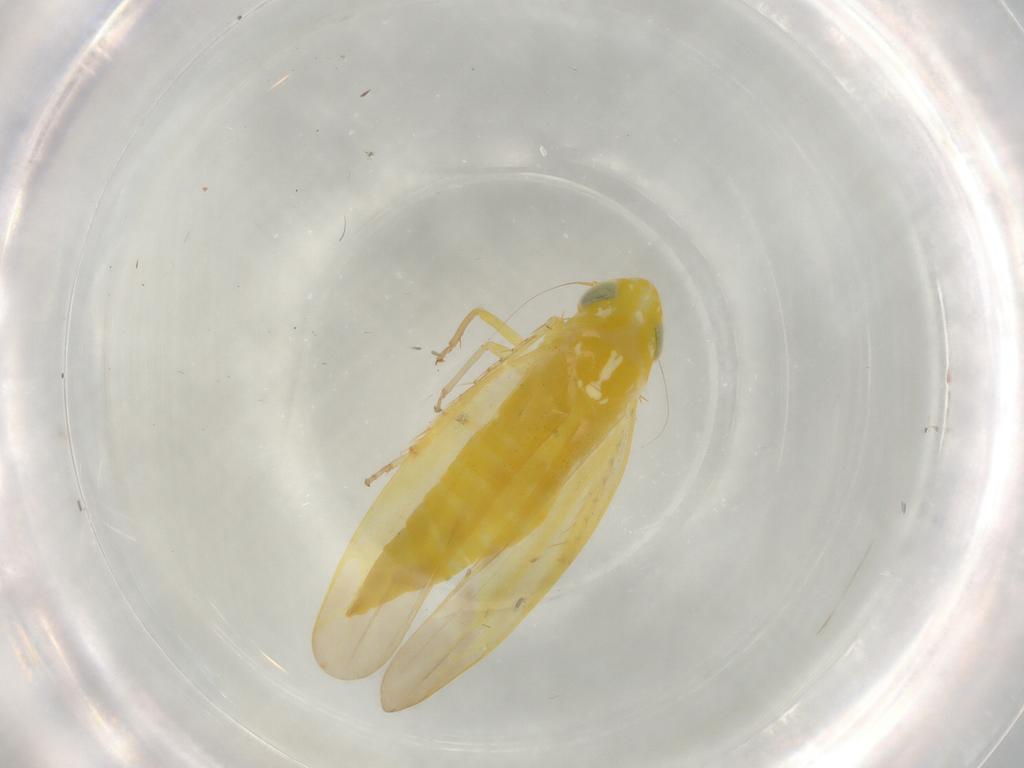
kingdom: Animalia
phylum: Arthropoda
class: Insecta
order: Hemiptera
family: Cicadellidae
